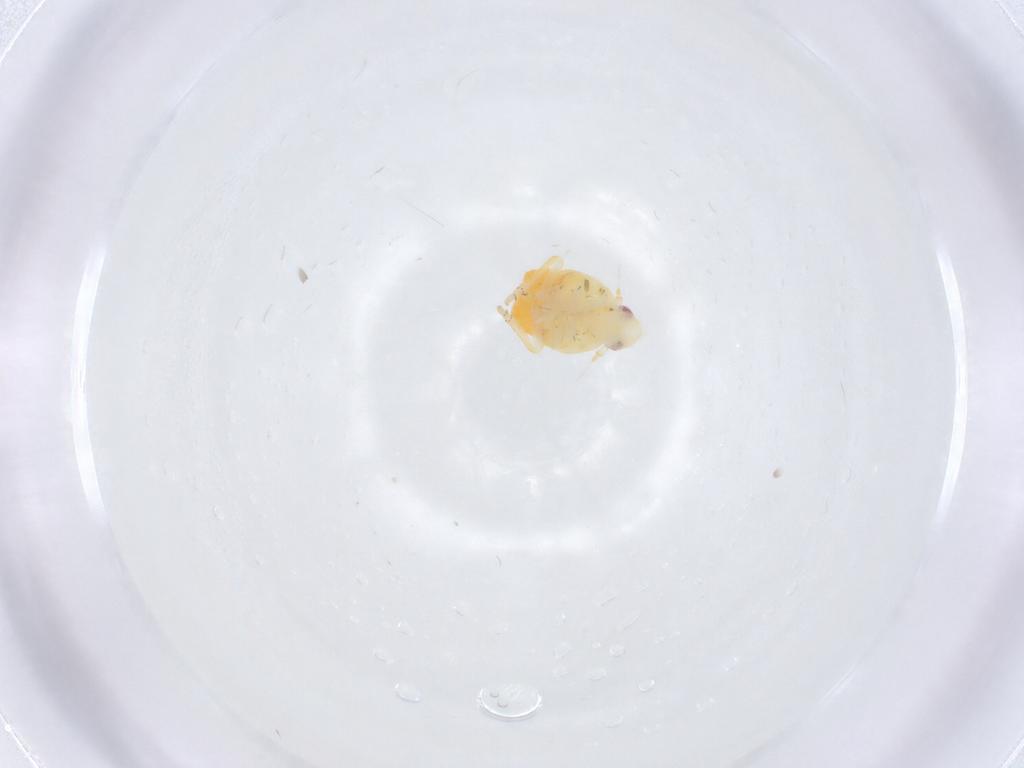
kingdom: Animalia
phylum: Arthropoda
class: Insecta
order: Hemiptera
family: Fulgoroidea_incertae_sedis
